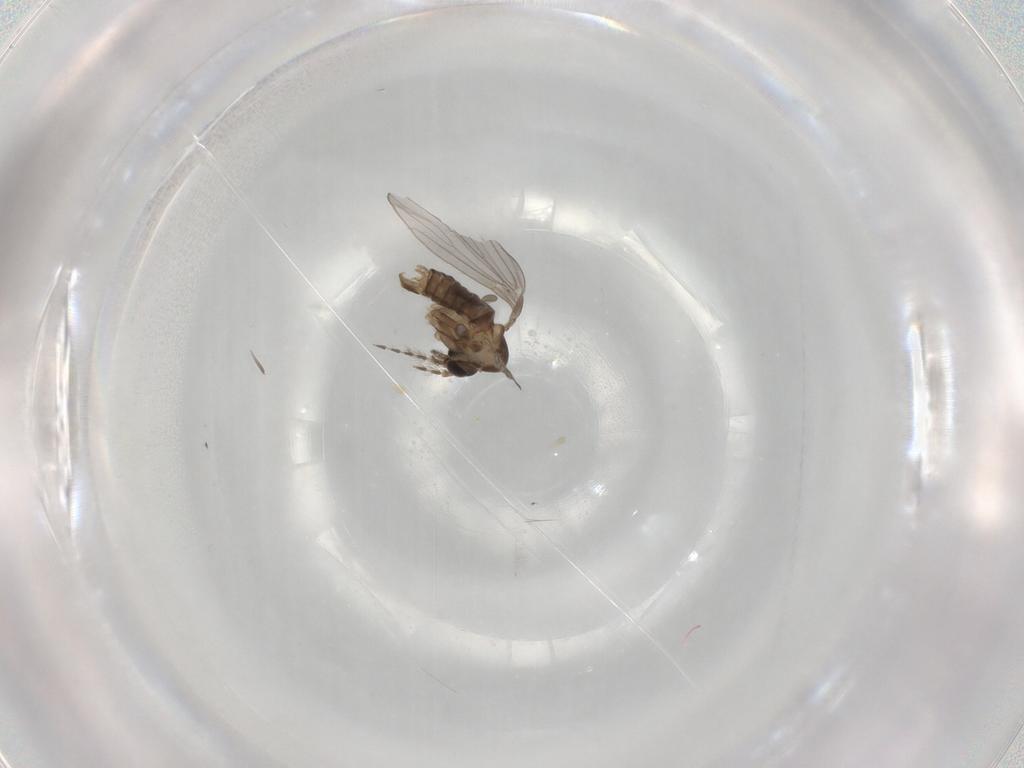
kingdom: Animalia
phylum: Arthropoda
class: Insecta
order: Diptera
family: Psychodidae
